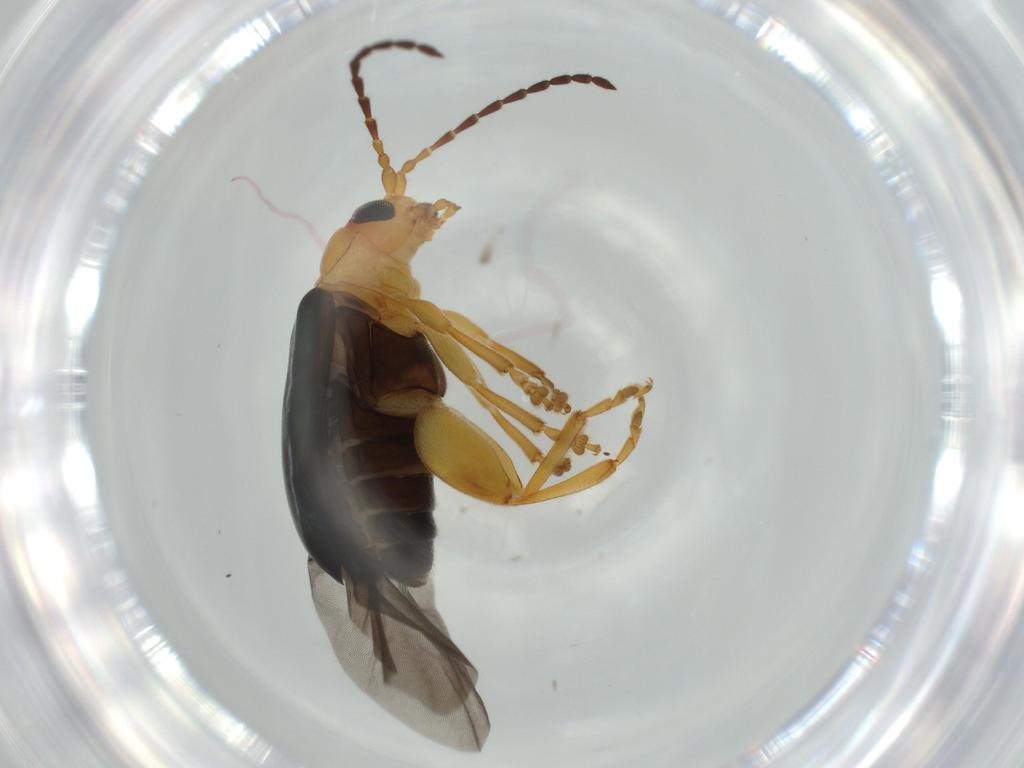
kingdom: Animalia
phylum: Arthropoda
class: Insecta
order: Coleoptera
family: Chrysomelidae
